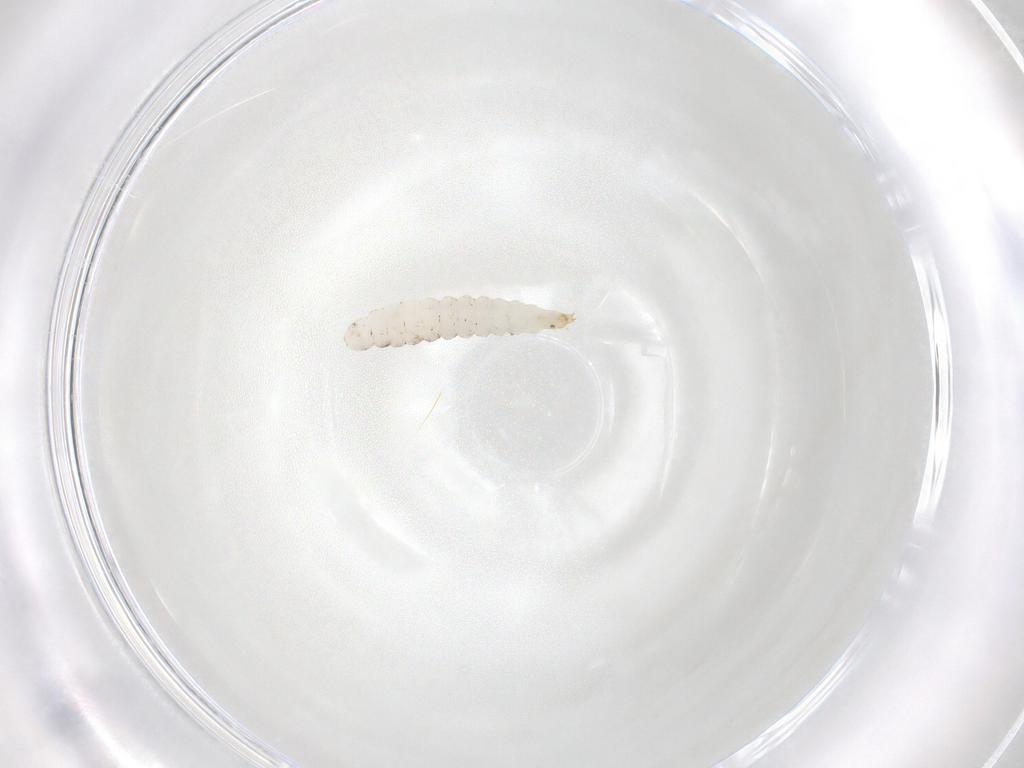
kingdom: Animalia
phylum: Arthropoda
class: Insecta
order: Diptera
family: Stratiomyidae
